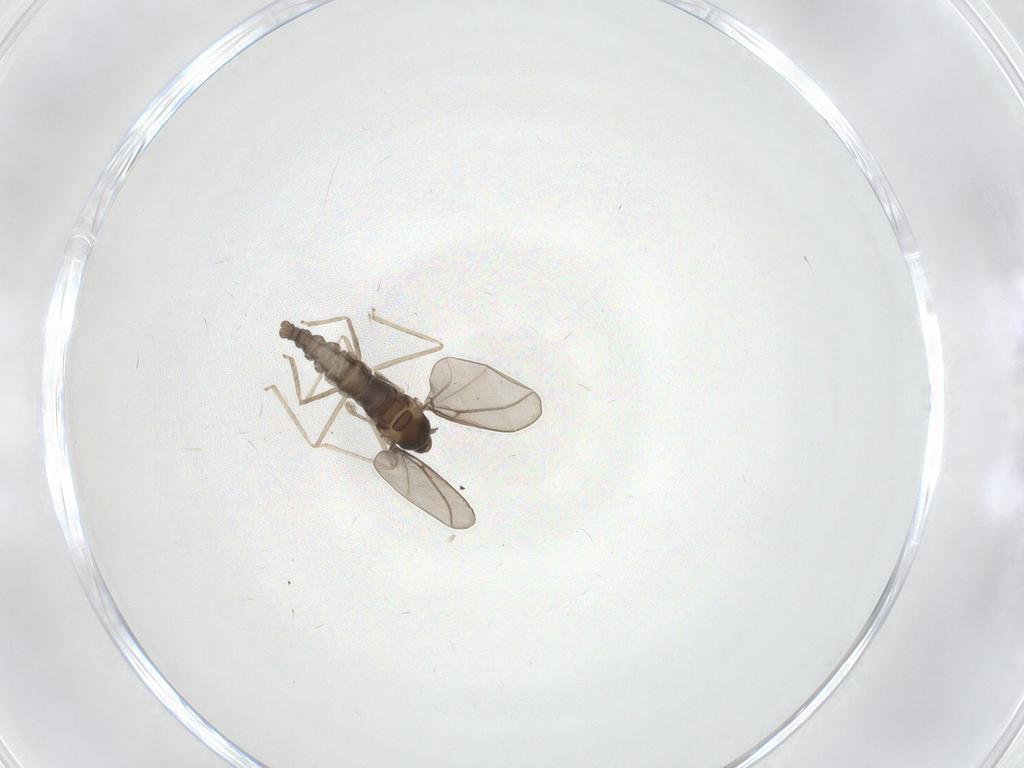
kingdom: Animalia
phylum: Arthropoda
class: Insecta
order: Diptera
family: Cecidomyiidae
